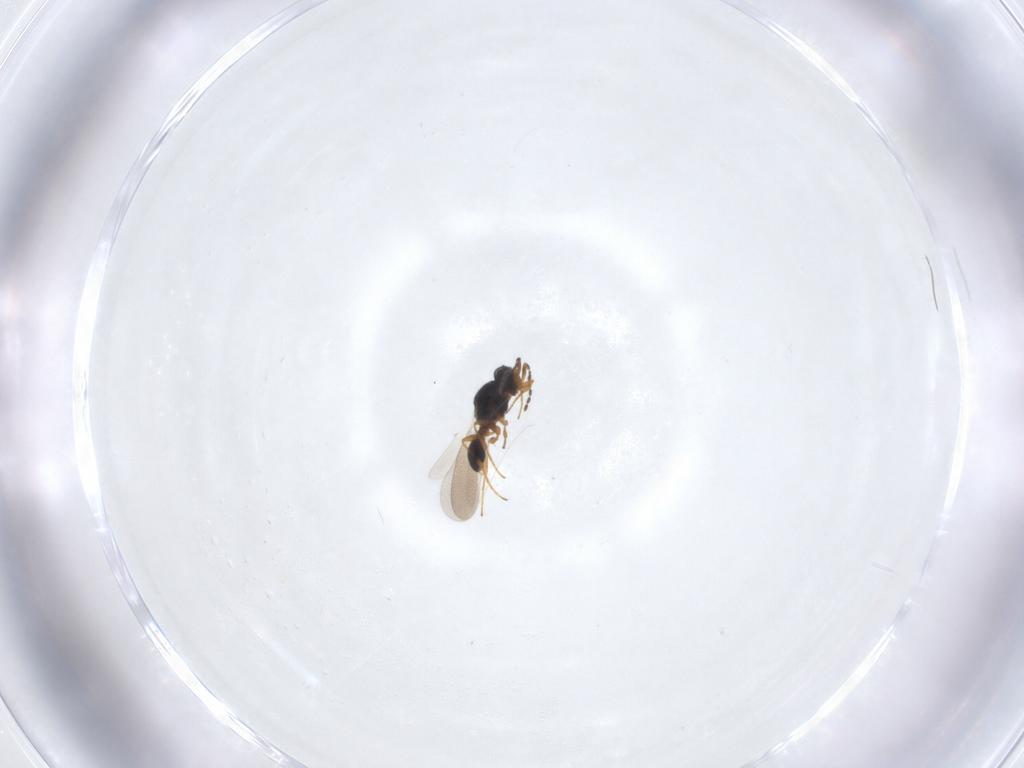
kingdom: Animalia
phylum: Arthropoda
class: Insecta
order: Hymenoptera
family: Platygastridae
